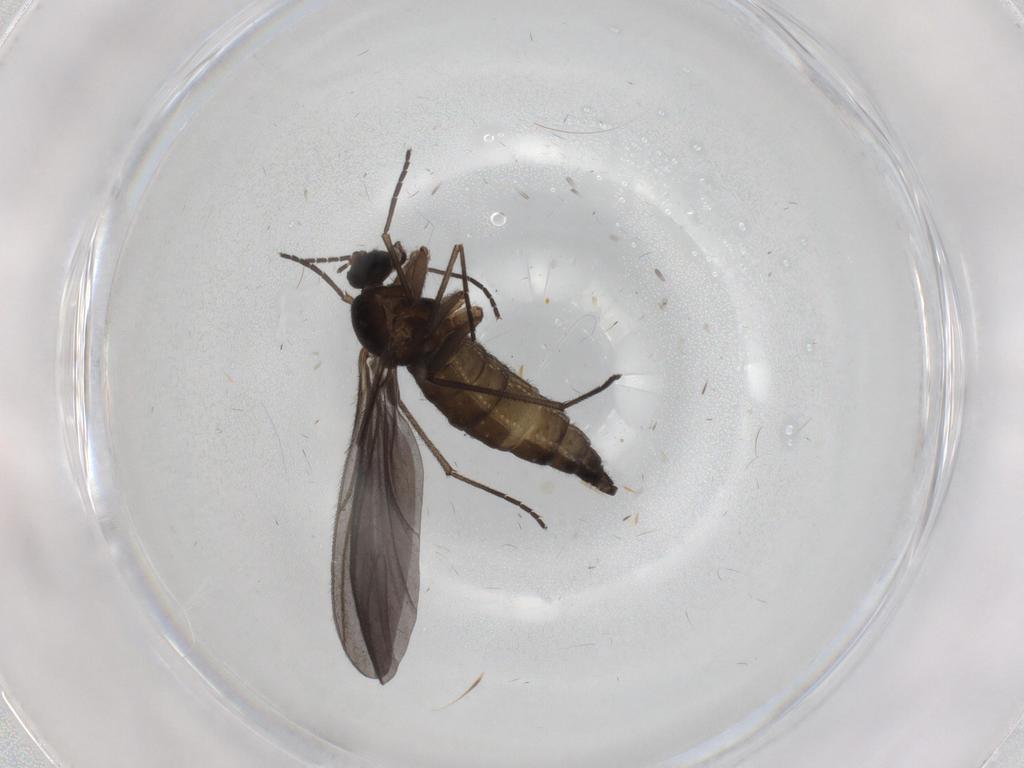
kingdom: Animalia
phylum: Arthropoda
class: Insecta
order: Diptera
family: Sciaridae
